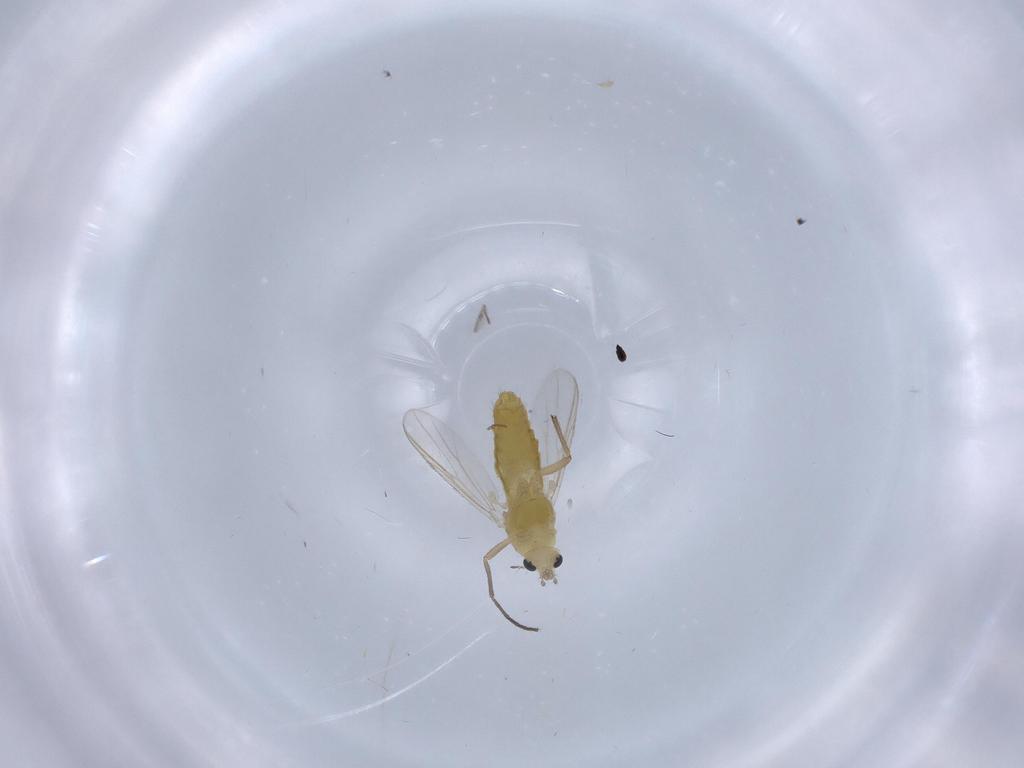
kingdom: Animalia
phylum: Arthropoda
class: Insecta
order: Diptera
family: Chironomidae
